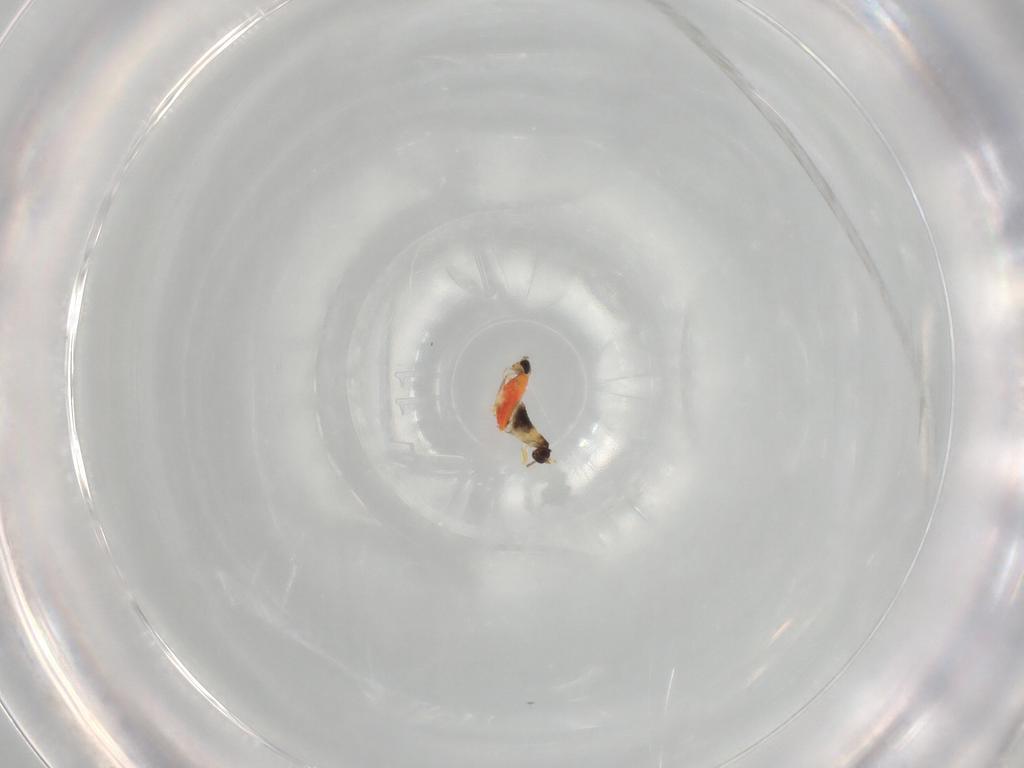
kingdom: Animalia
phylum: Arthropoda
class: Insecta
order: Hymenoptera
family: Mymaridae
